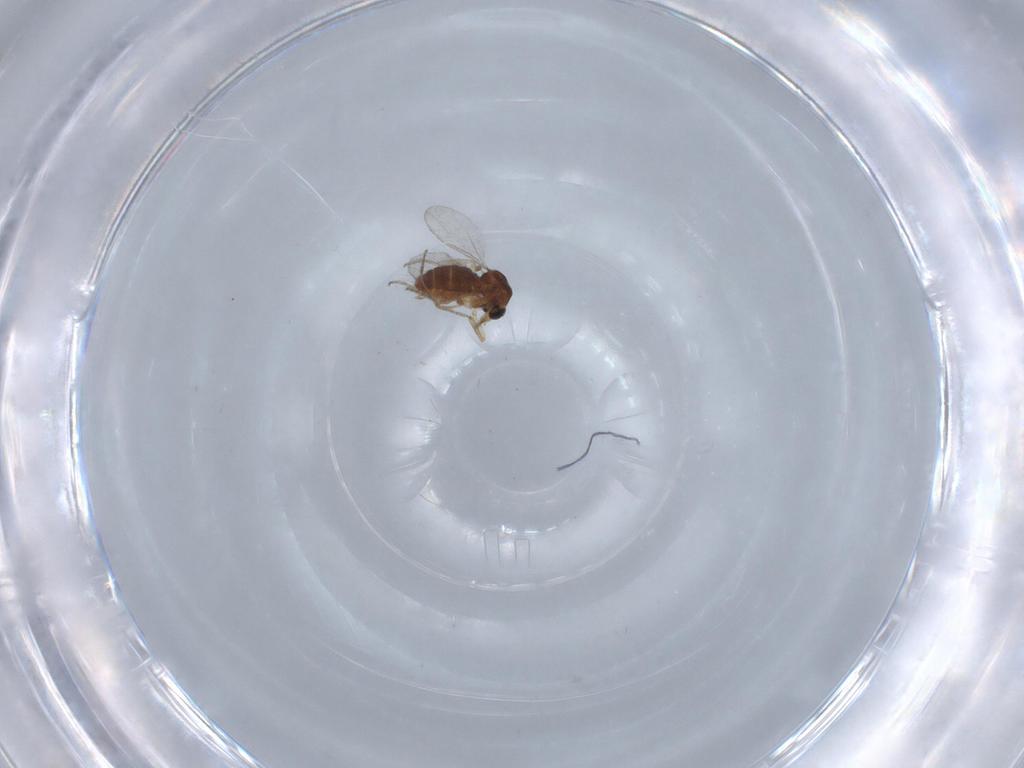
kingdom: Animalia
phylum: Arthropoda
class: Insecta
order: Diptera
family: Ceratopogonidae
